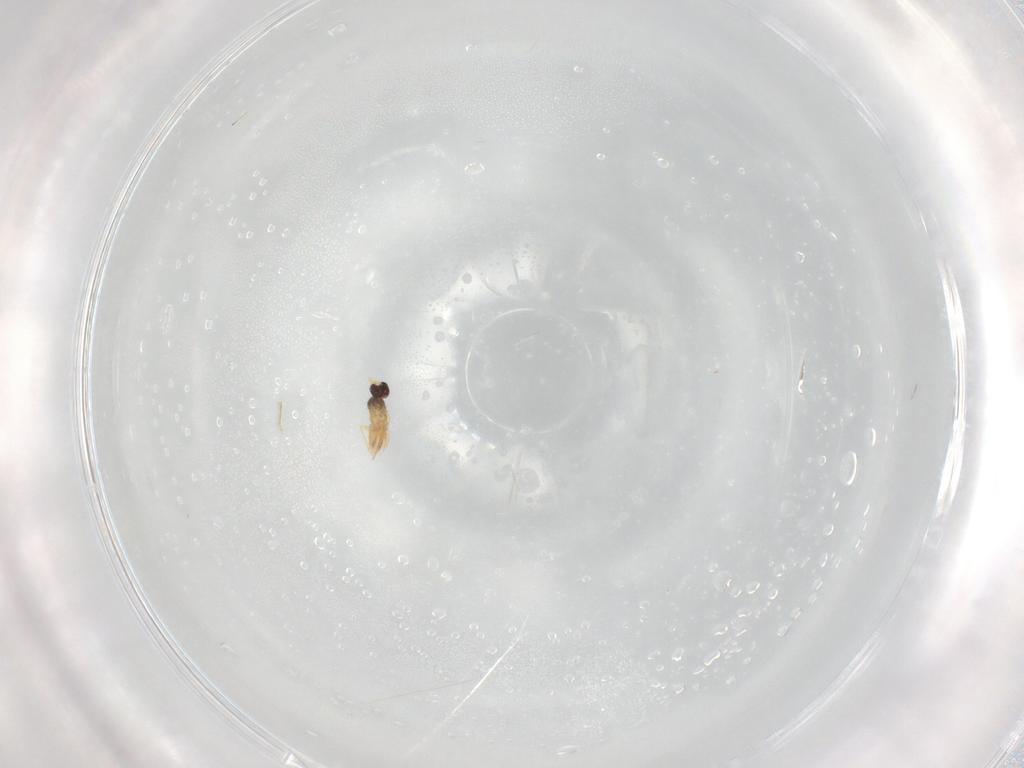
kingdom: Animalia
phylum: Arthropoda
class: Insecta
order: Hymenoptera
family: Mymaridae
